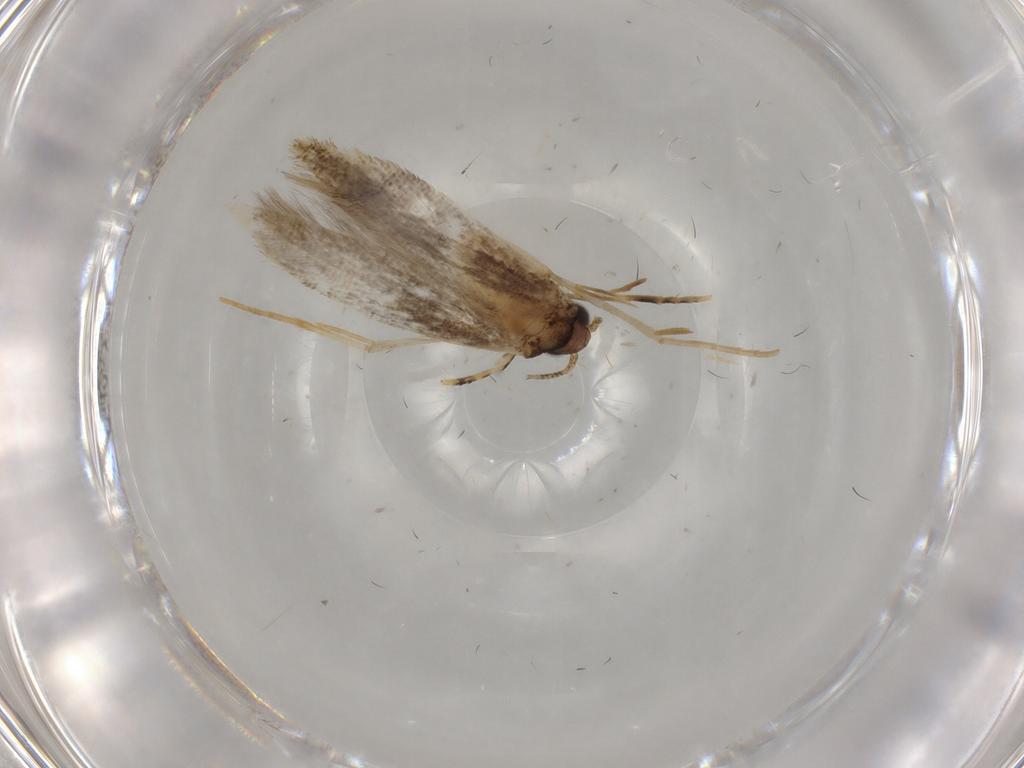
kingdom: Animalia
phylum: Arthropoda
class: Insecta
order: Lepidoptera
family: Tineidae
